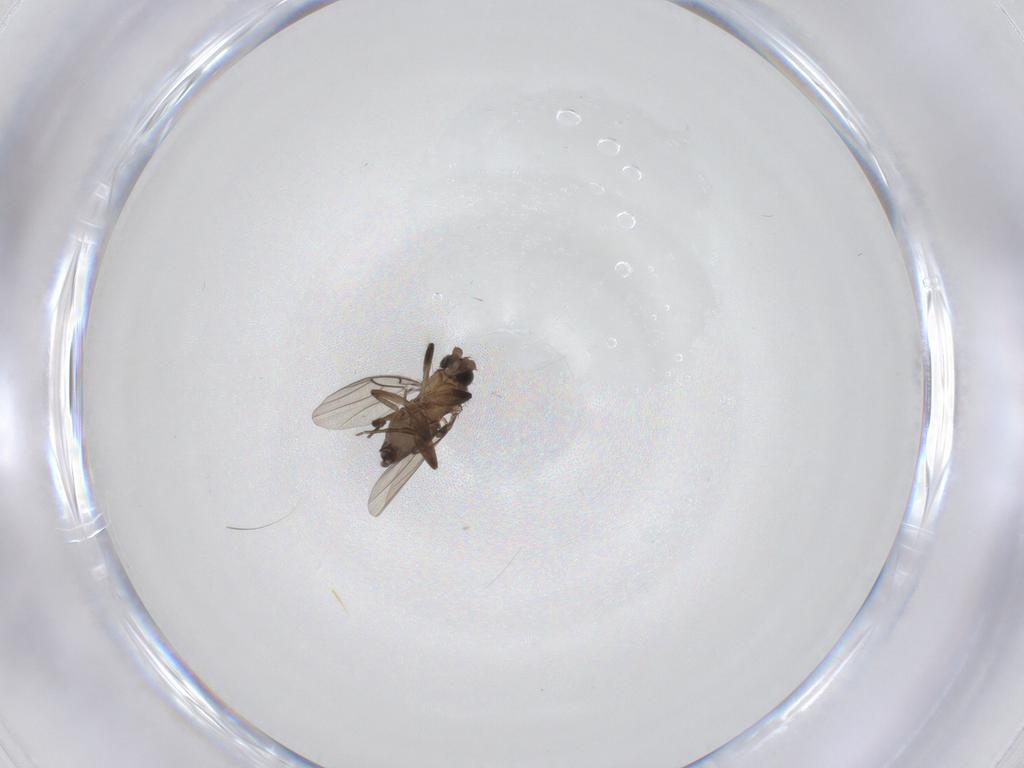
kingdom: Animalia
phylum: Arthropoda
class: Insecta
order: Diptera
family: Phoridae
